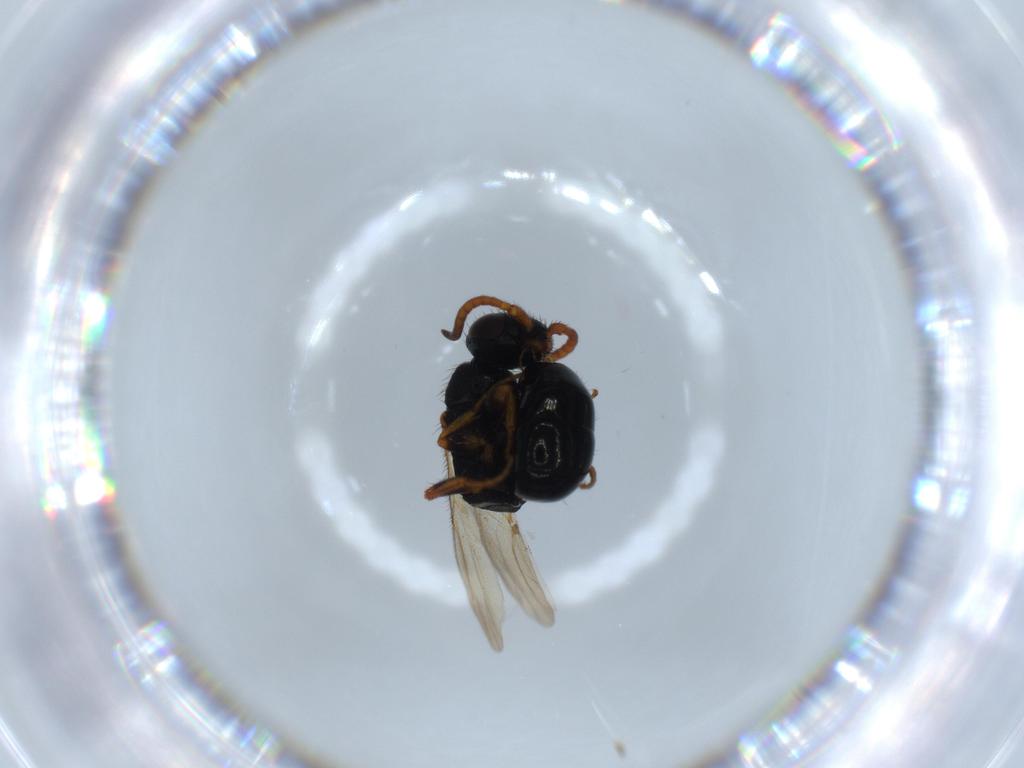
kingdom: Animalia
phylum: Arthropoda
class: Insecta
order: Hymenoptera
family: Bethylidae
